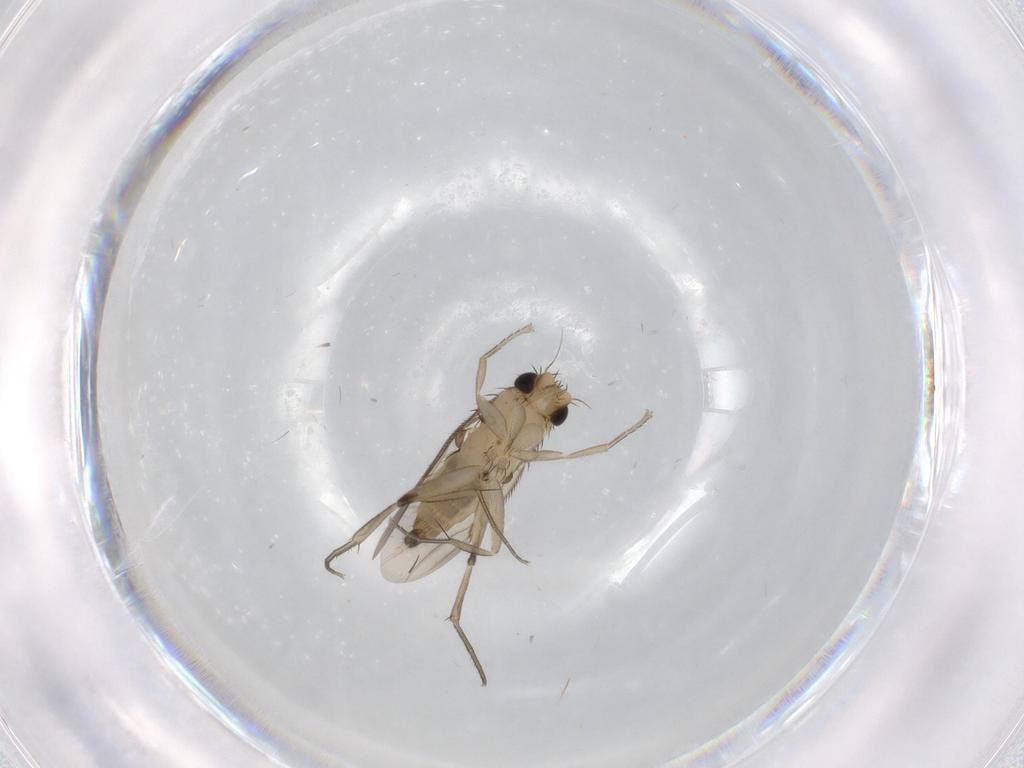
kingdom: Animalia
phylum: Arthropoda
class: Insecta
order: Diptera
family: Phoridae
